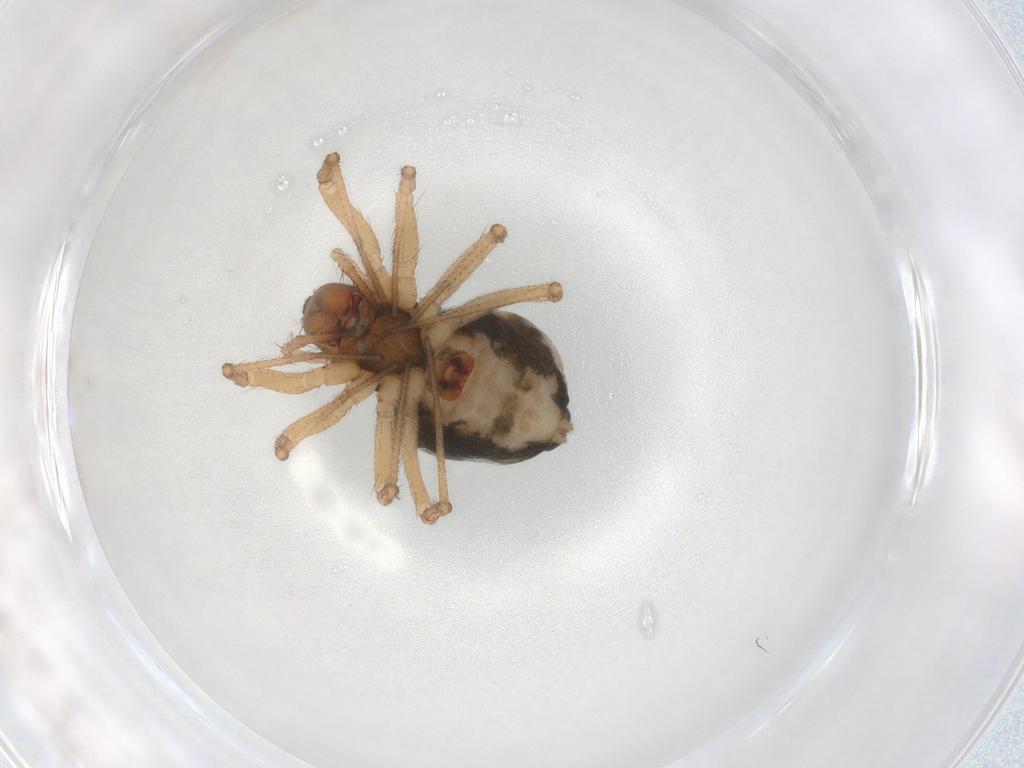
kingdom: Animalia
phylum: Arthropoda
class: Arachnida
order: Araneae
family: Linyphiidae
